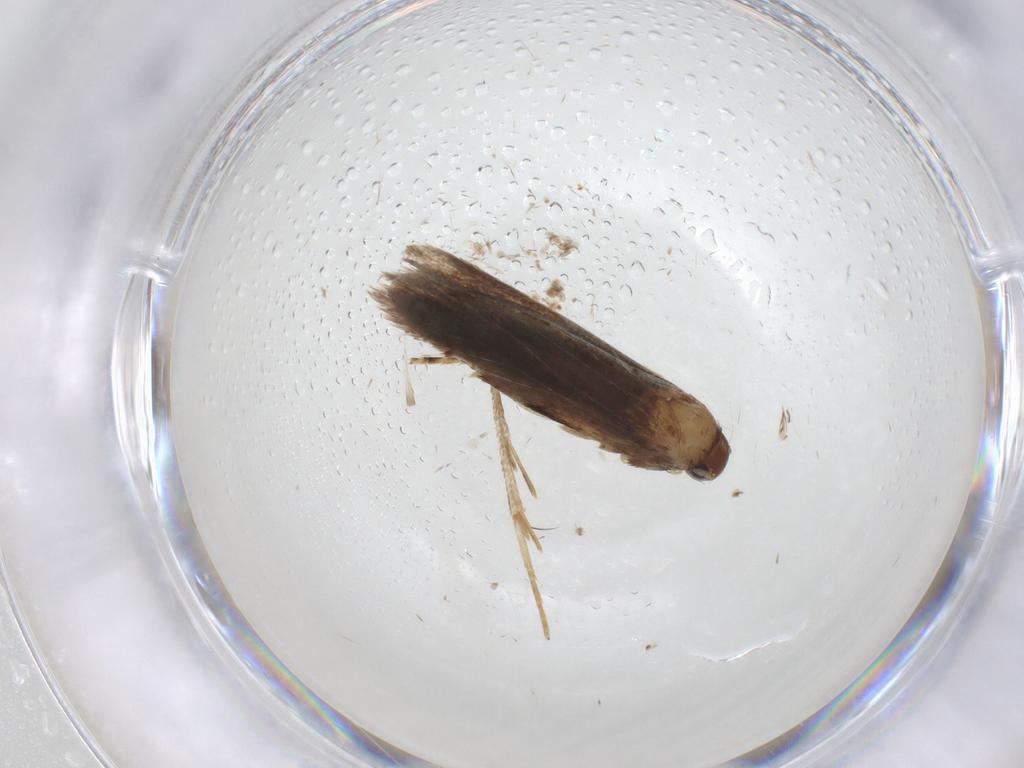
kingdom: Animalia
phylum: Arthropoda
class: Insecta
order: Lepidoptera
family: Gelechiidae
